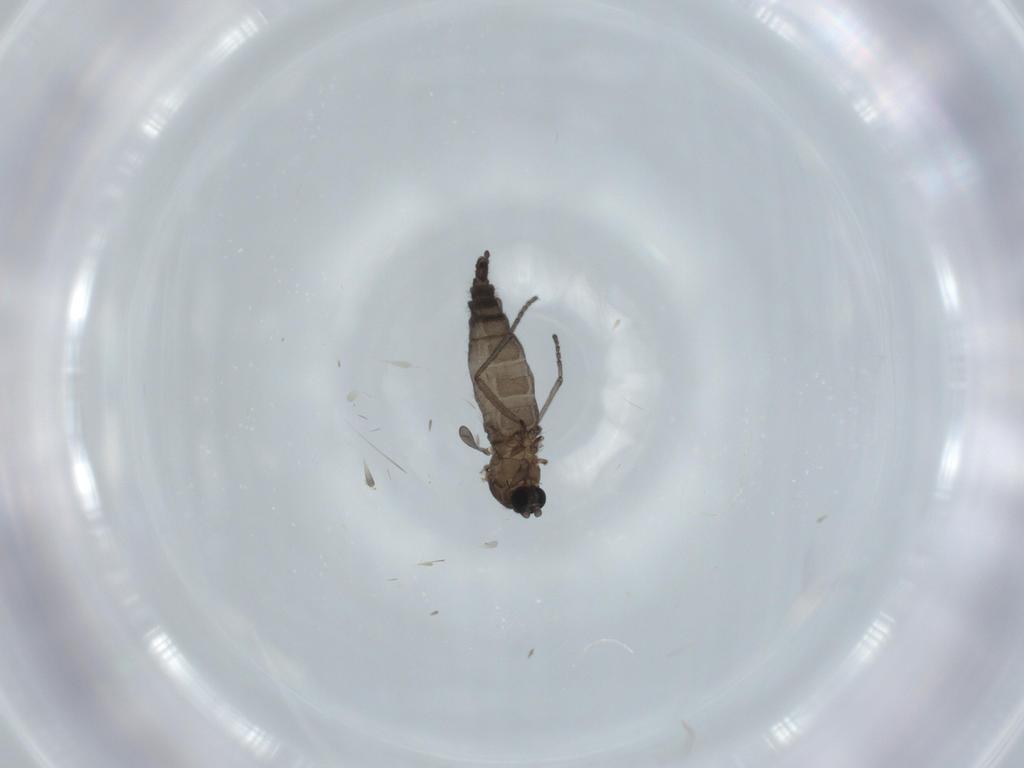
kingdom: Animalia
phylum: Arthropoda
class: Insecta
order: Diptera
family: Sciaridae
